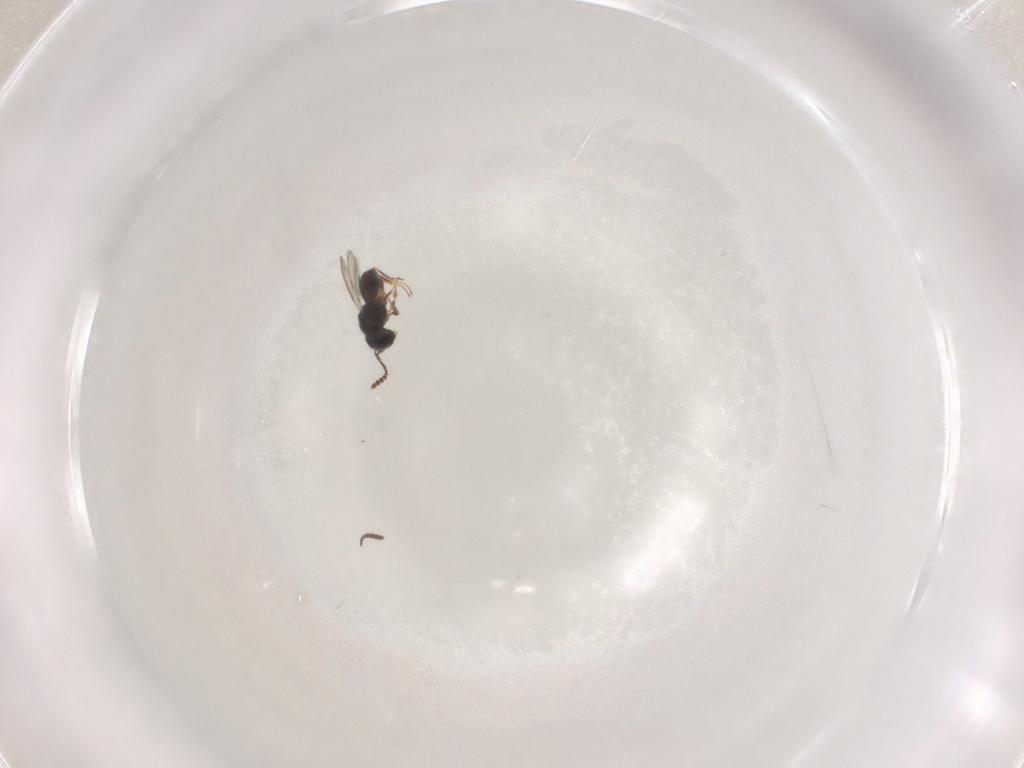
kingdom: Animalia
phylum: Arthropoda
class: Insecta
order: Hymenoptera
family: Scelionidae
